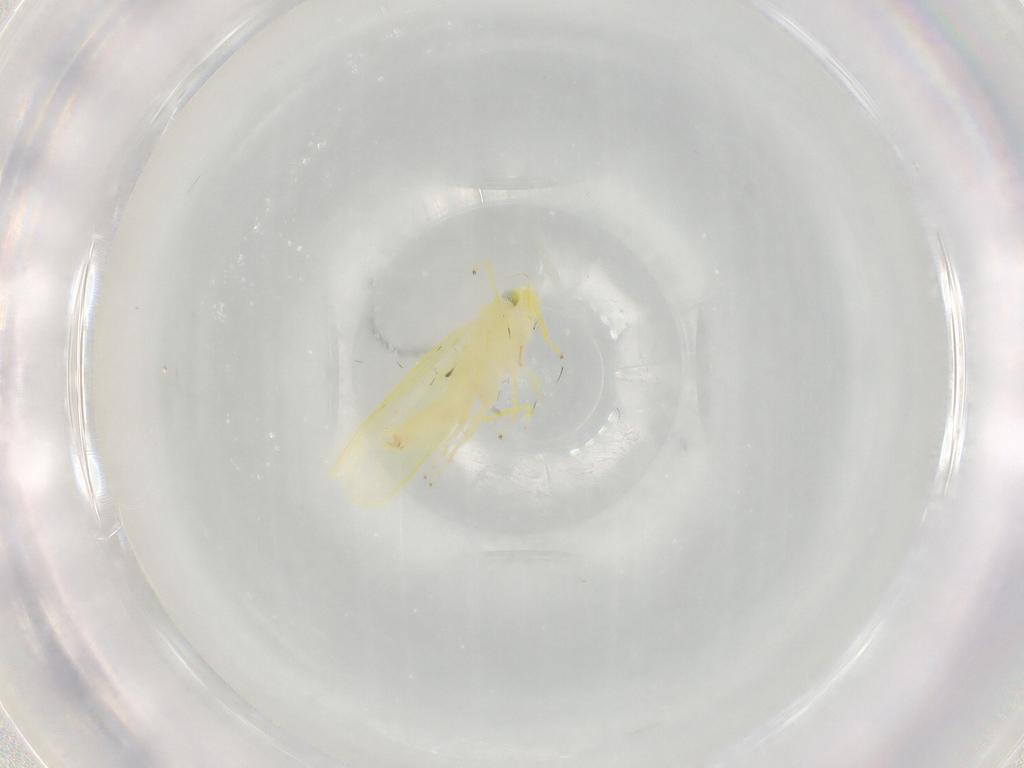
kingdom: Animalia
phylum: Arthropoda
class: Insecta
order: Hemiptera
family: Cicadellidae
